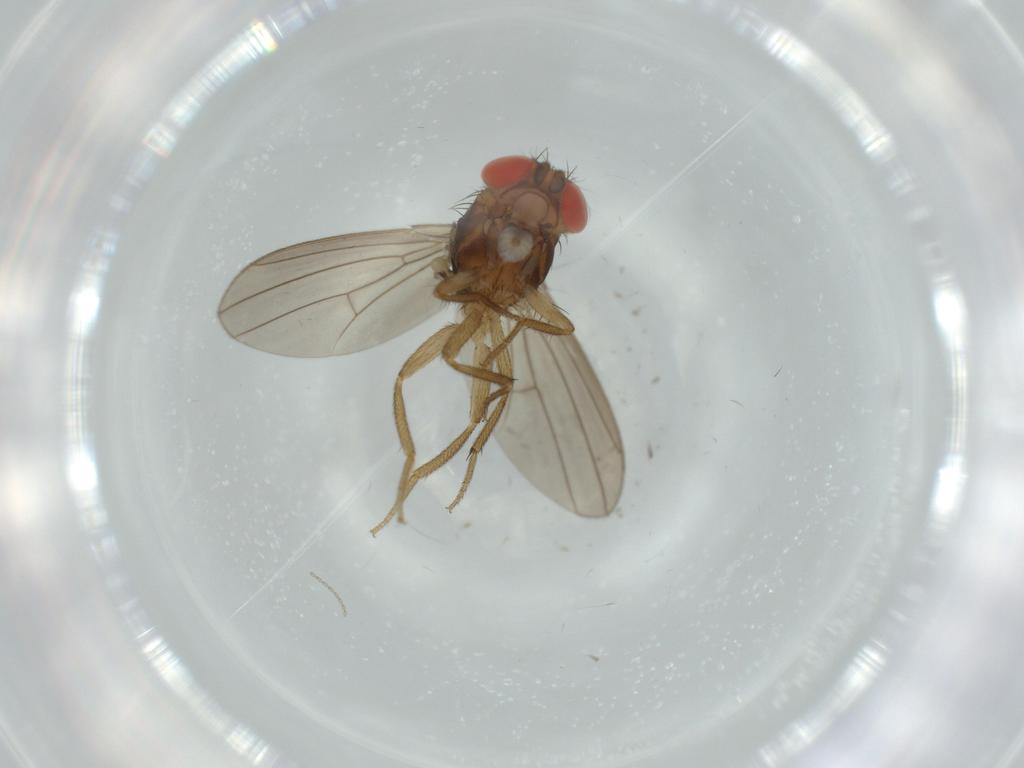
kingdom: Animalia
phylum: Arthropoda
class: Insecta
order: Diptera
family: Drosophilidae
